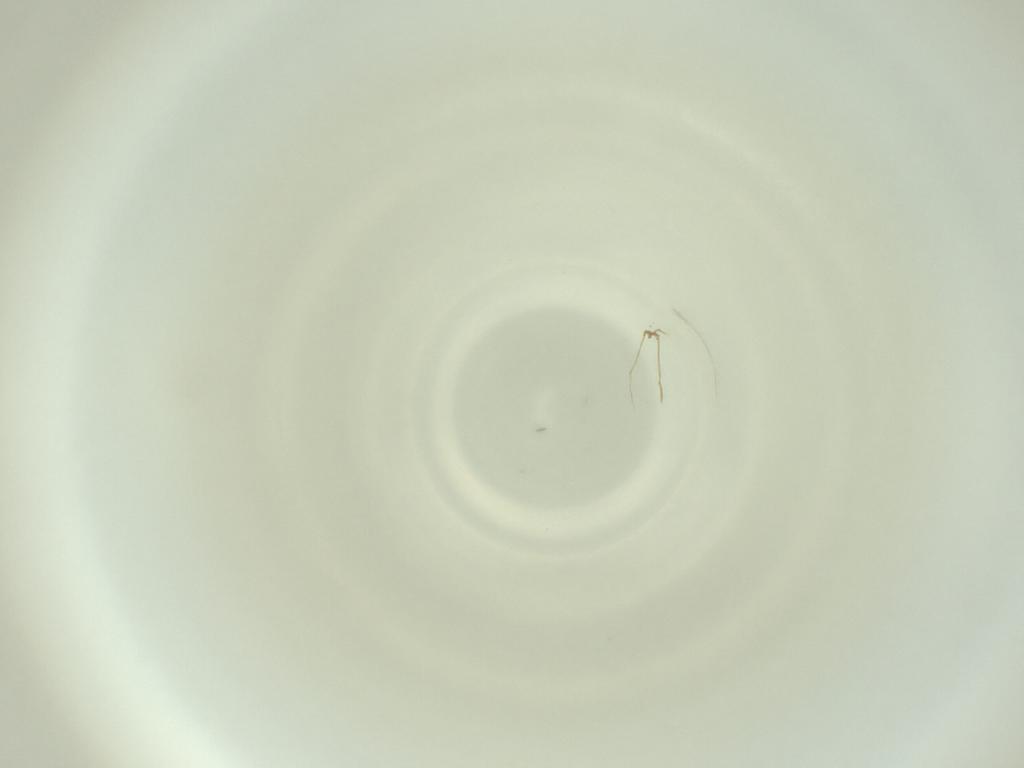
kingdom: Animalia
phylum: Arthropoda
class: Insecta
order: Diptera
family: Cecidomyiidae
